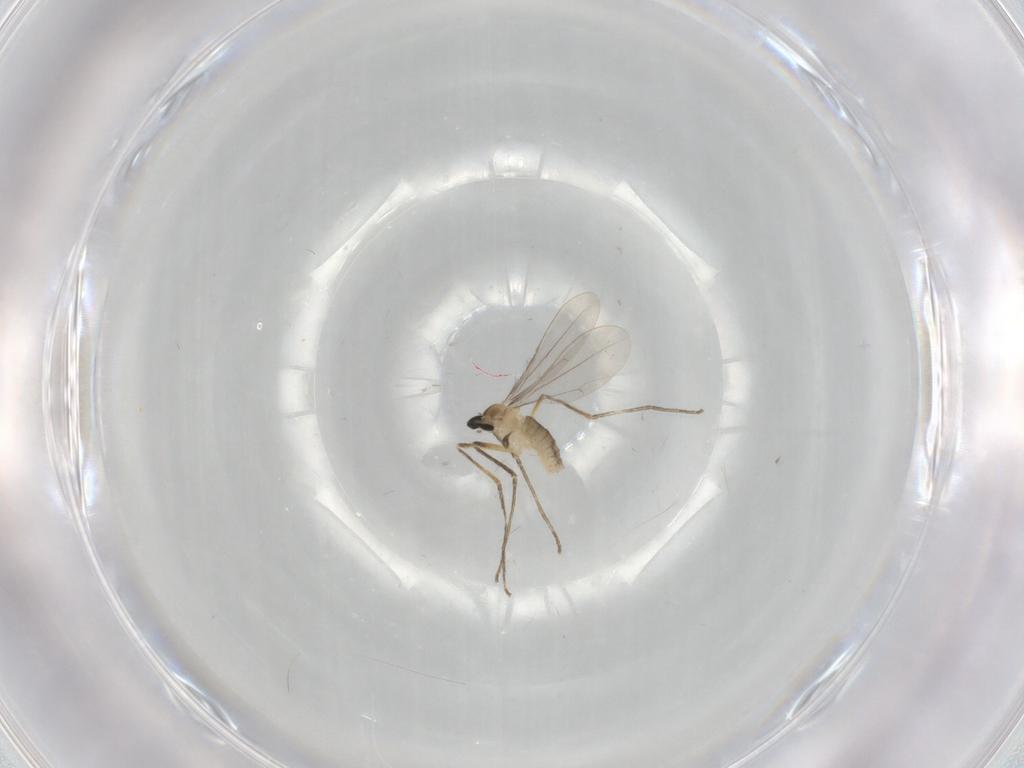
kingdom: Animalia
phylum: Arthropoda
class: Insecta
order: Diptera
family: Cecidomyiidae
